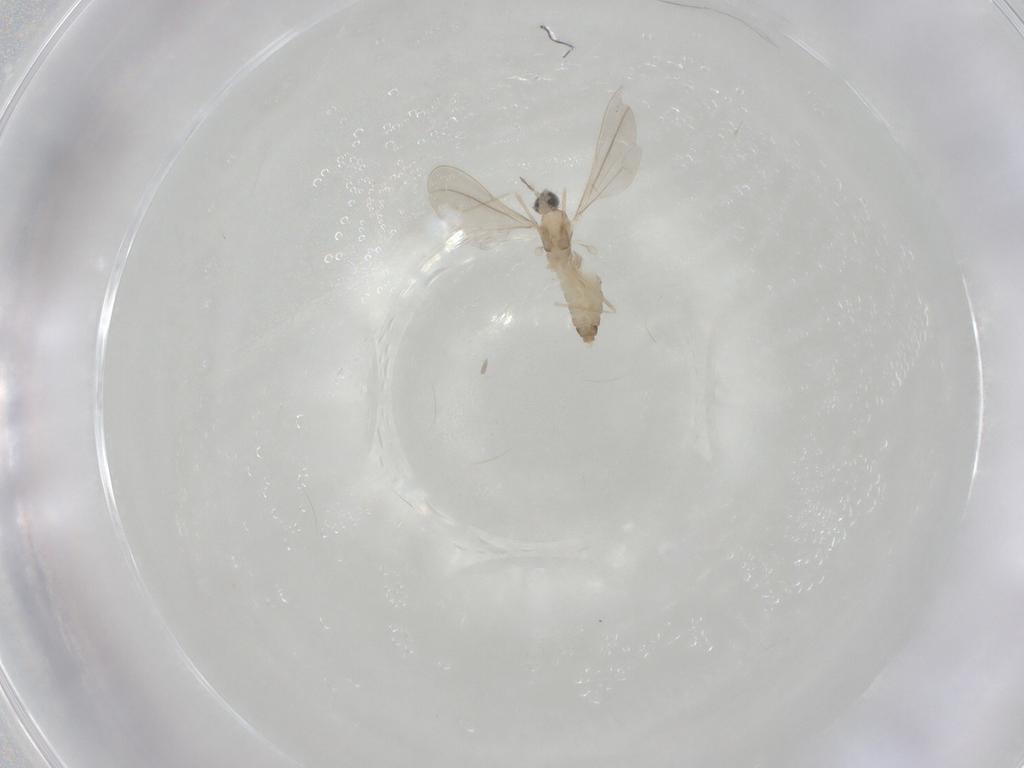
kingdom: Animalia
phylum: Arthropoda
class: Insecta
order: Diptera
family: Cecidomyiidae
